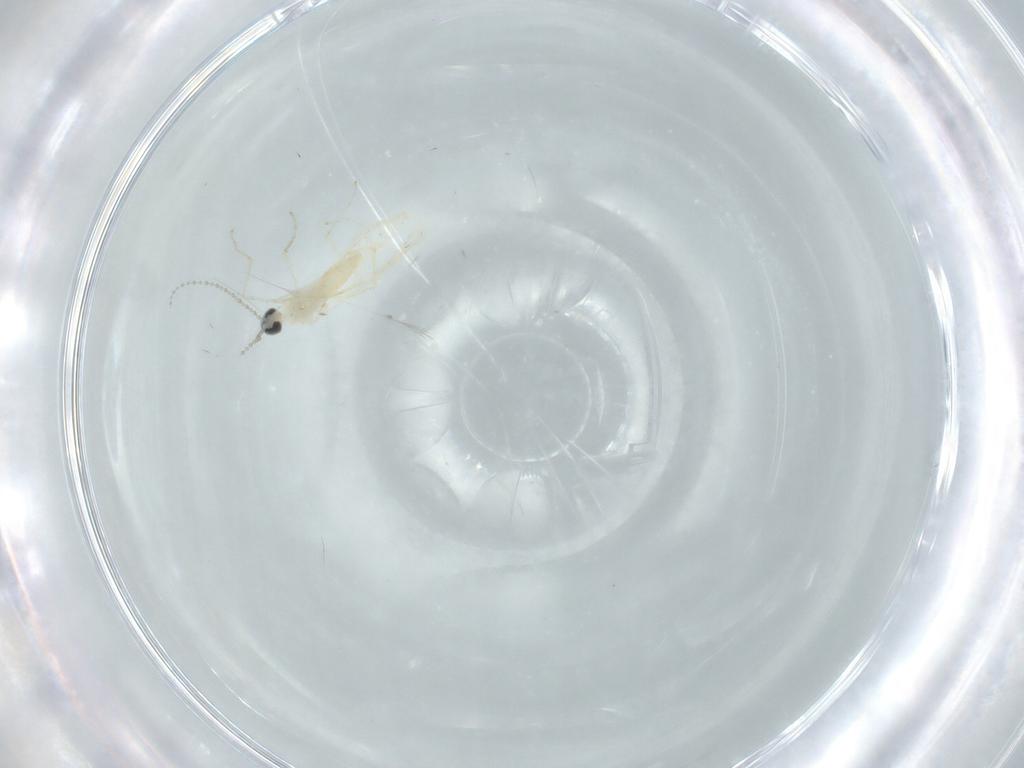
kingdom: Animalia
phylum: Arthropoda
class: Insecta
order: Diptera
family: Cecidomyiidae
